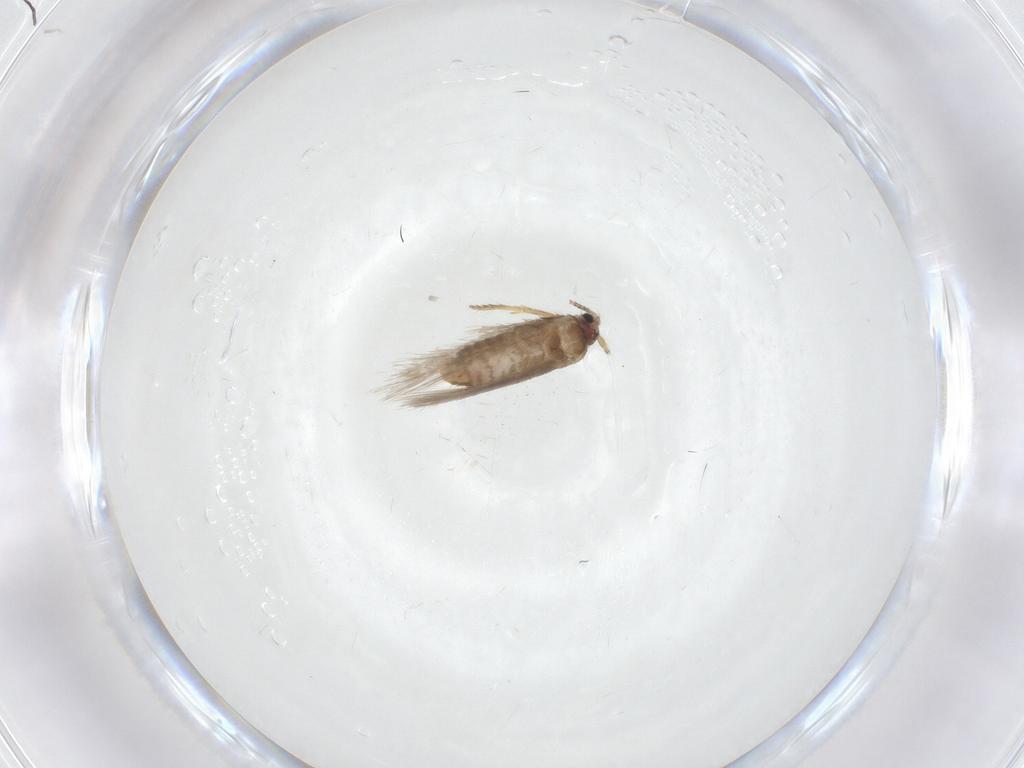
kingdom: Animalia
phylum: Arthropoda
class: Insecta
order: Lepidoptera
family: Nepticulidae
